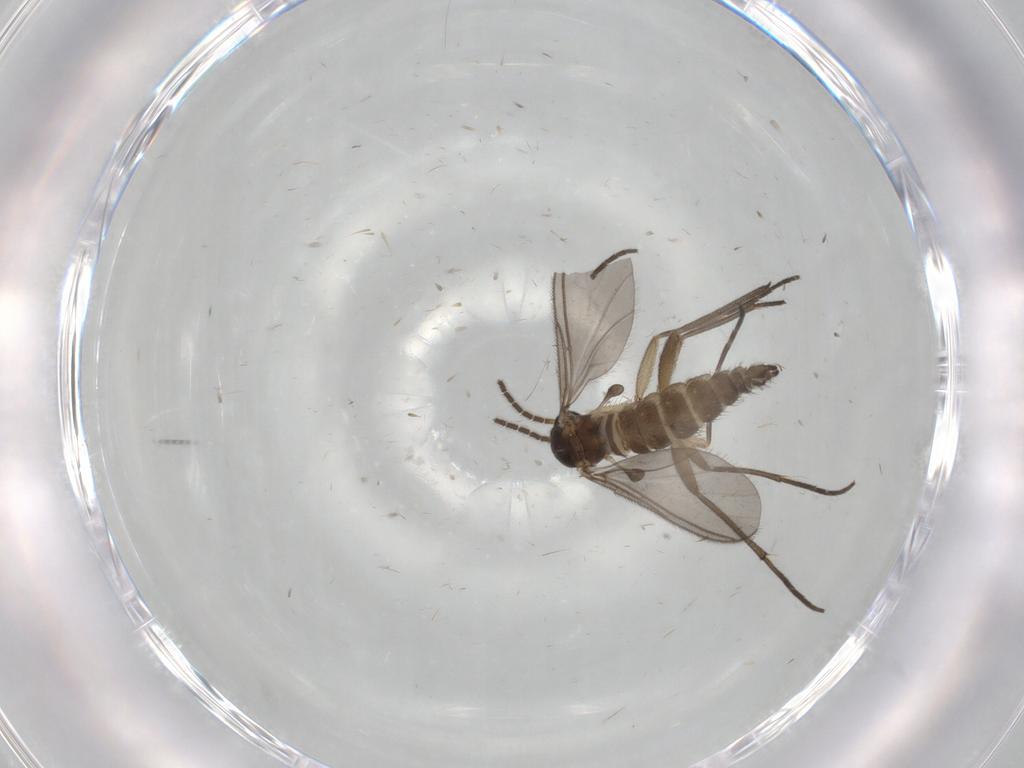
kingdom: Animalia
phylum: Arthropoda
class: Insecta
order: Diptera
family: Sciaridae
